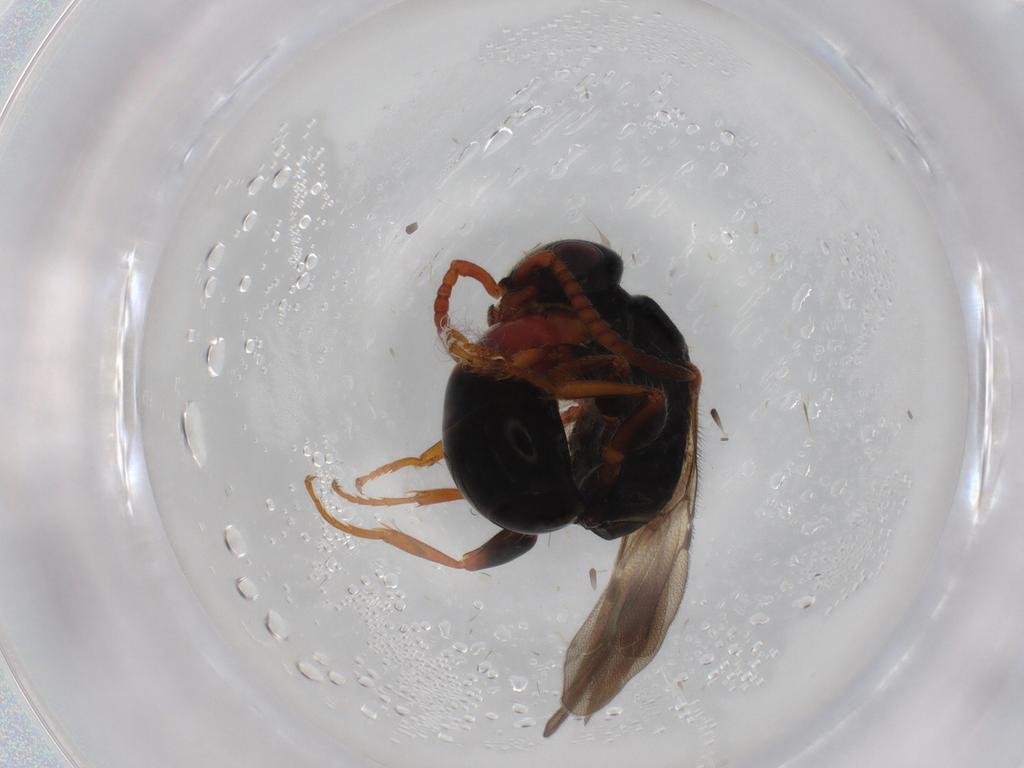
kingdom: Animalia
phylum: Arthropoda
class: Insecta
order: Hymenoptera
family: Bethylidae
